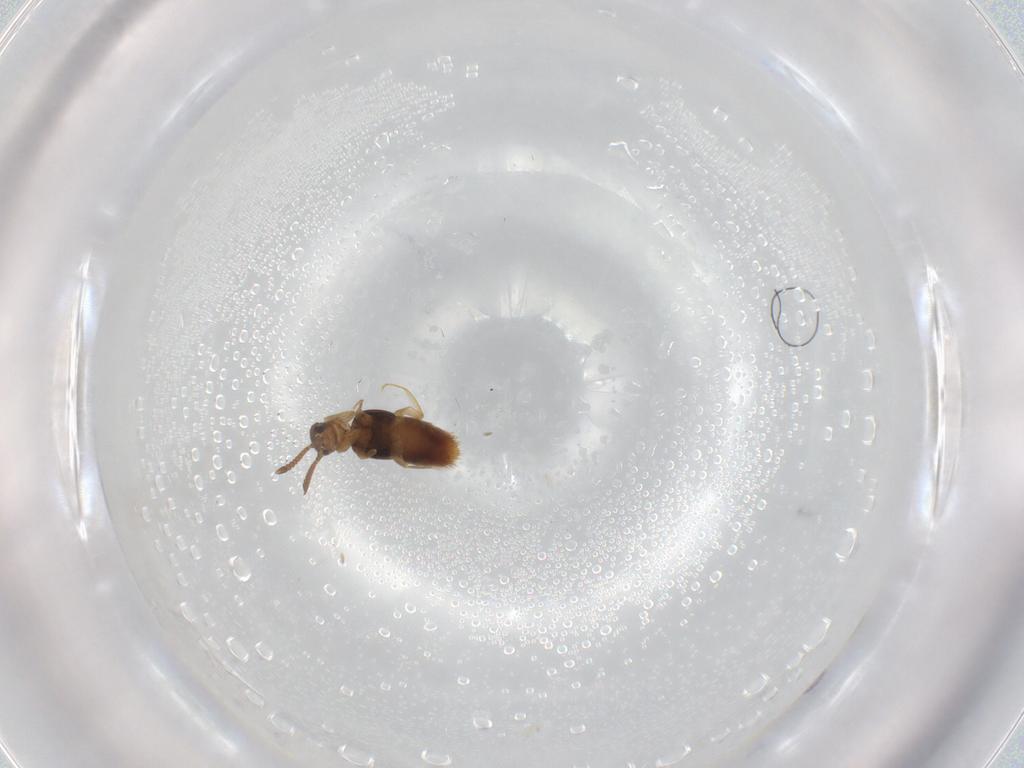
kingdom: Animalia
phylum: Arthropoda
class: Insecta
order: Coleoptera
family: Staphylinidae
